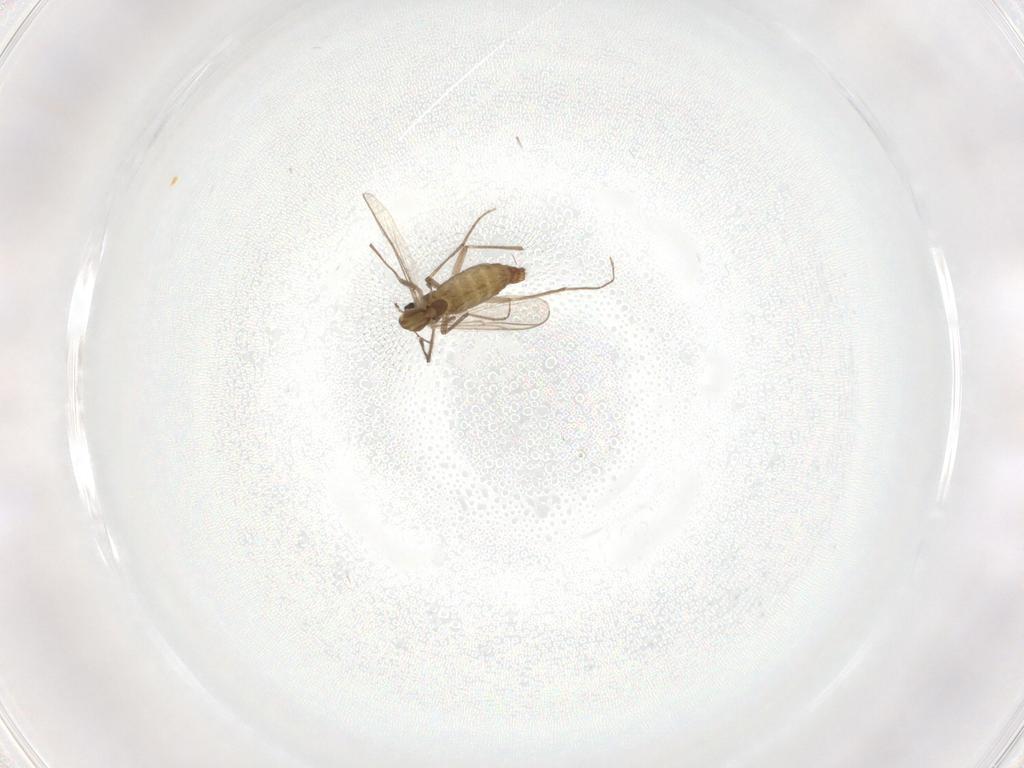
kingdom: Animalia
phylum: Arthropoda
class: Insecta
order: Diptera
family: Chironomidae
